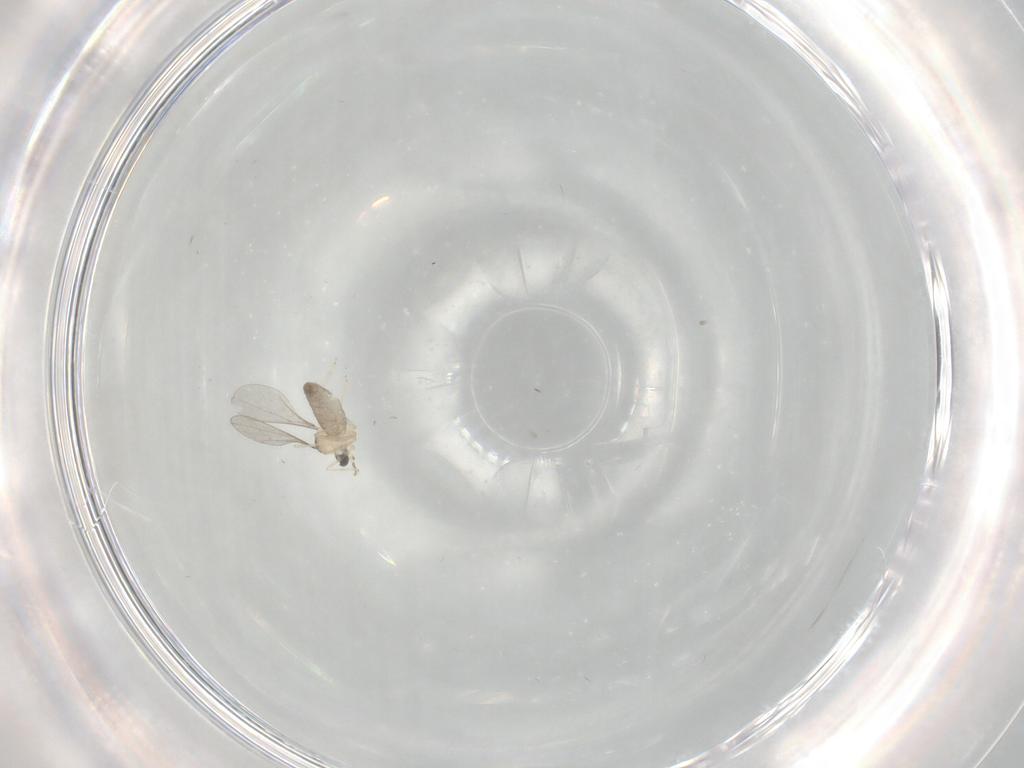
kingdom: Animalia
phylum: Arthropoda
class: Insecta
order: Diptera
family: Cecidomyiidae
